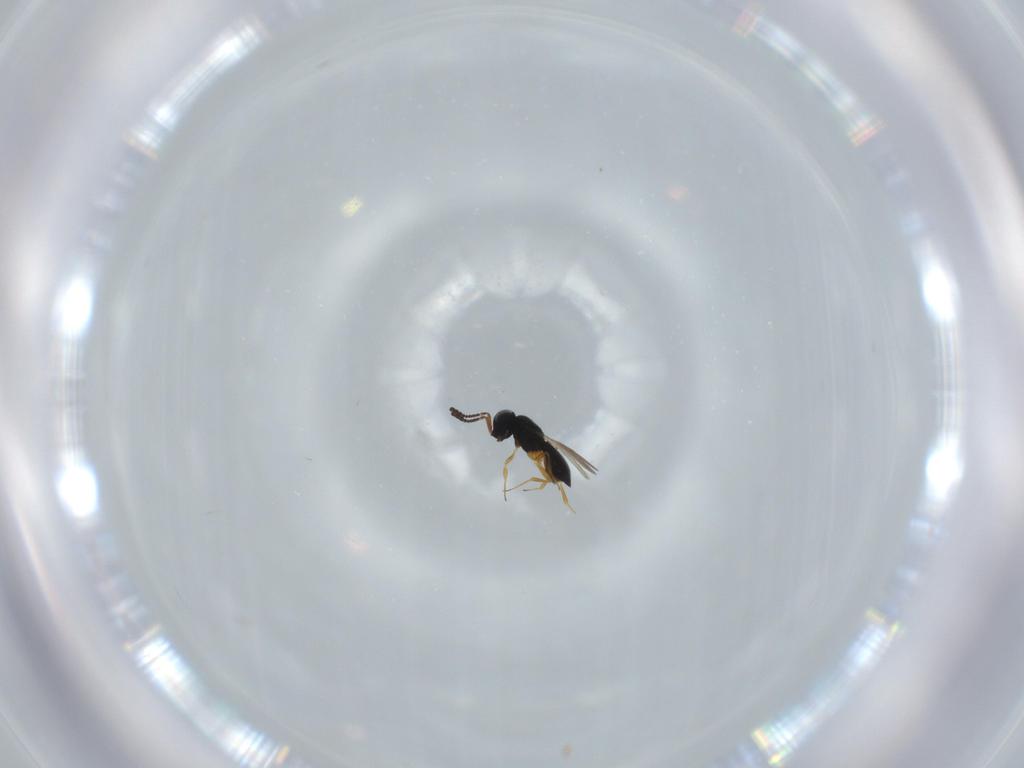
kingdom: Animalia
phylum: Arthropoda
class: Insecta
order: Hymenoptera
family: Scelionidae
